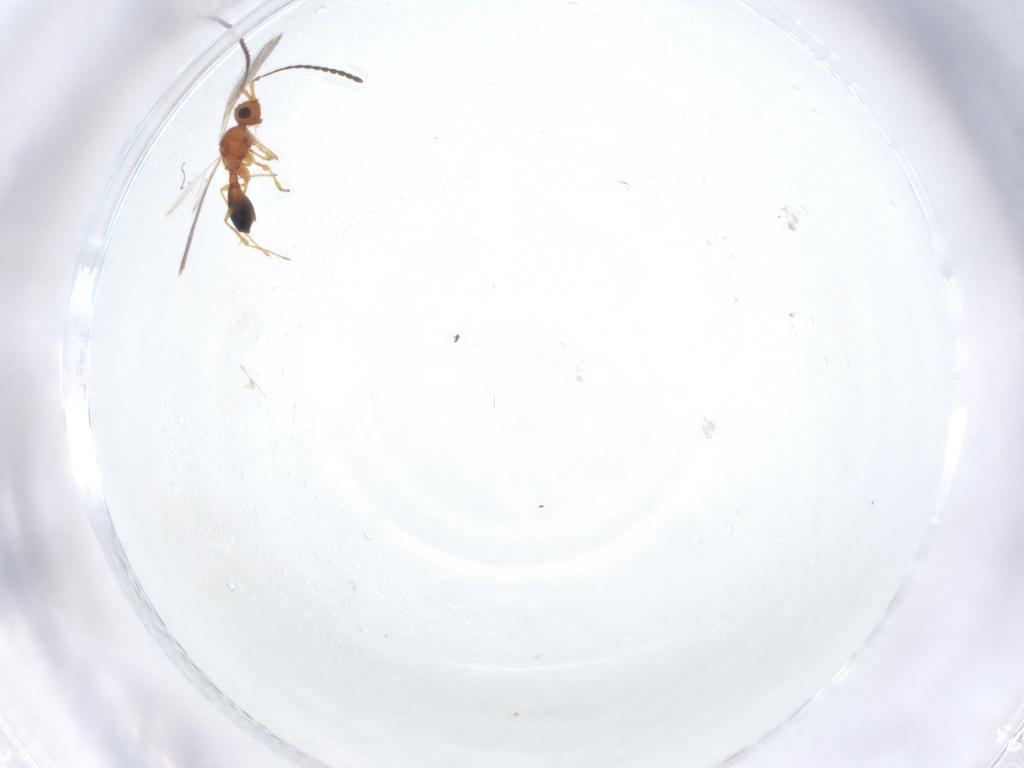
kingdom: Animalia
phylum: Arthropoda
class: Insecta
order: Hymenoptera
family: Diapriidae
